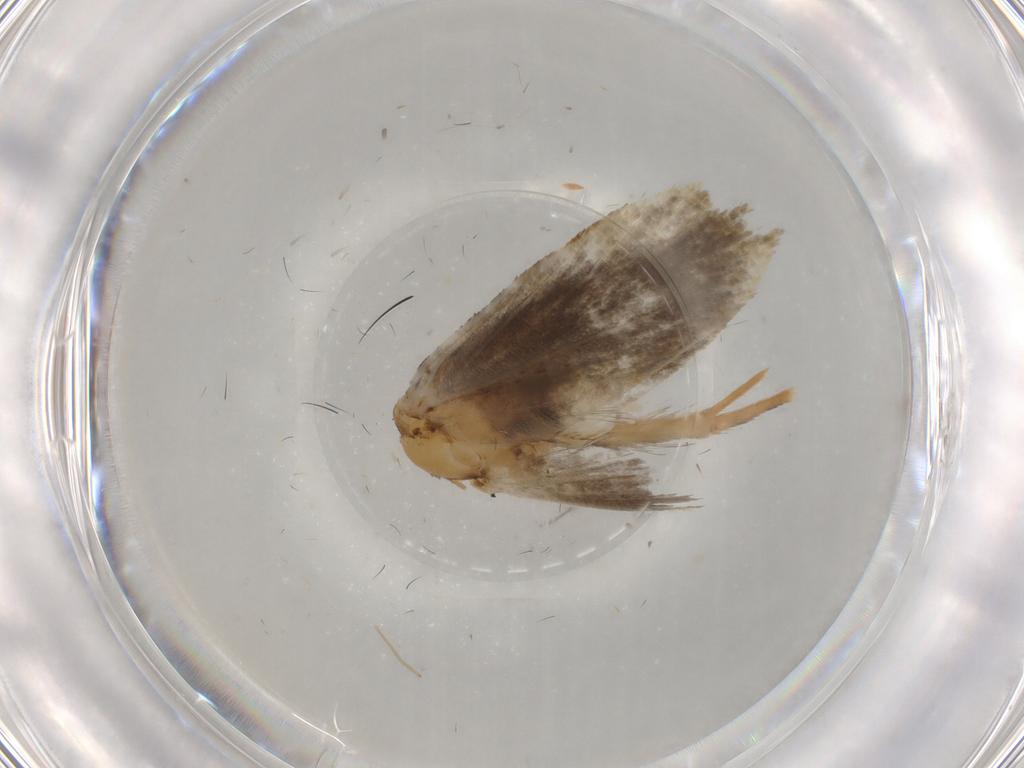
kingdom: Animalia
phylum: Arthropoda
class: Insecta
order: Lepidoptera
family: Tineidae
